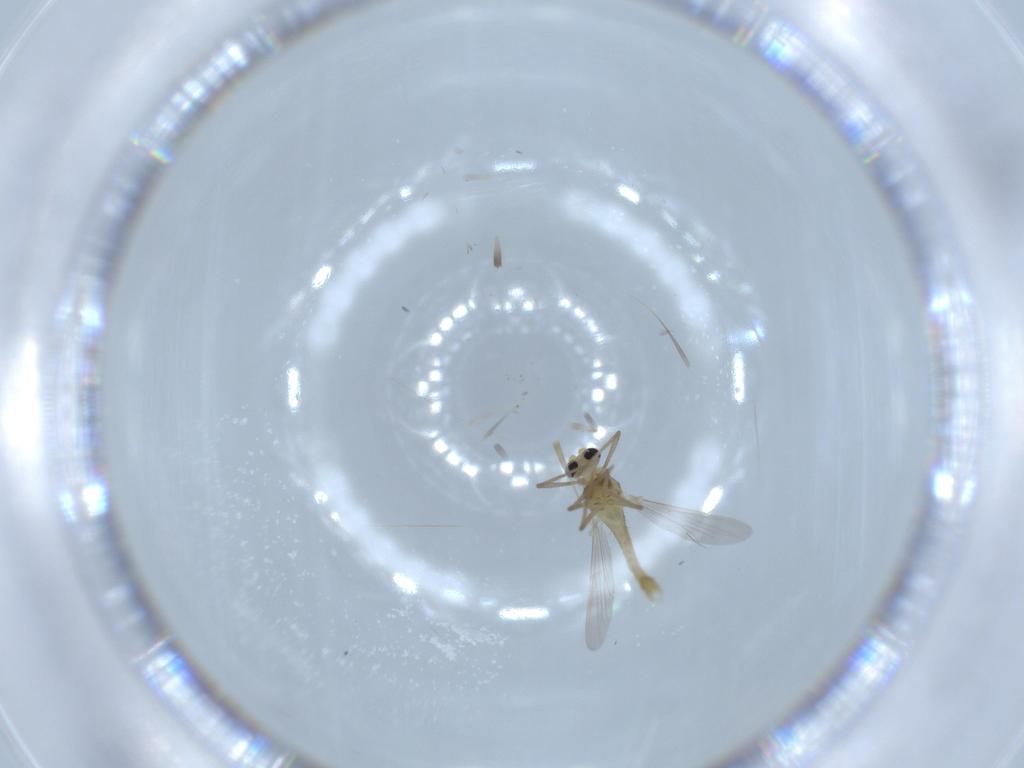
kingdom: Animalia
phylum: Arthropoda
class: Insecta
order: Diptera
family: Chironomidae
